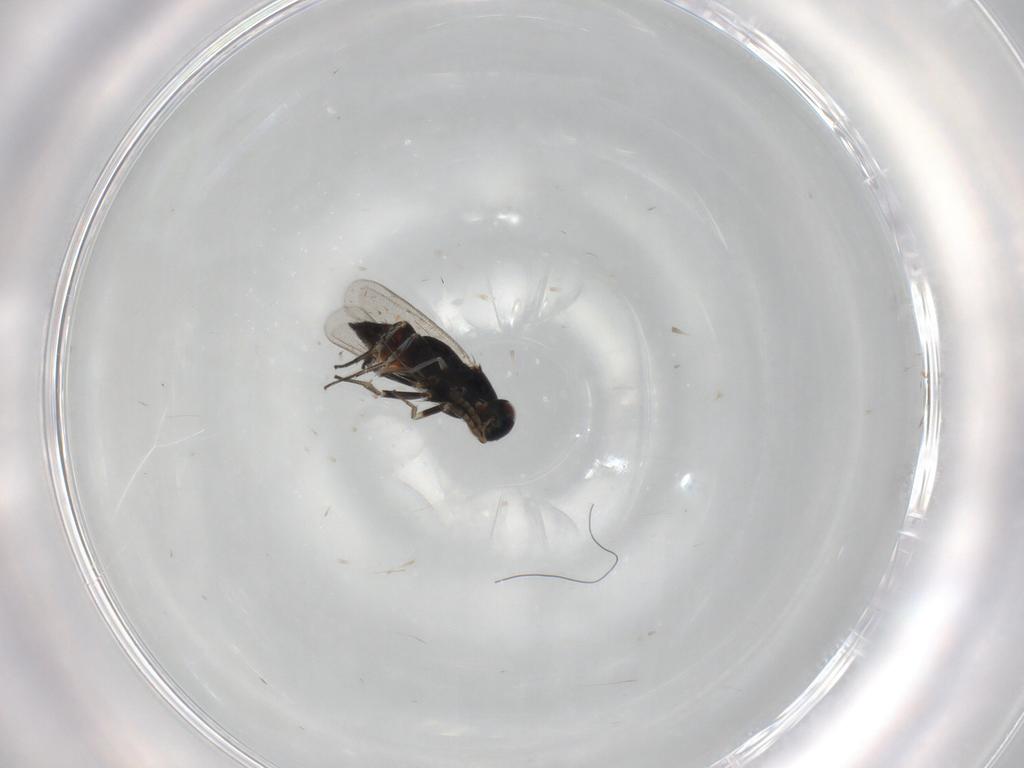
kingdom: Animalia
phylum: Arthropoda
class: Insecta
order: Hymenoptera
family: Eulophidae
